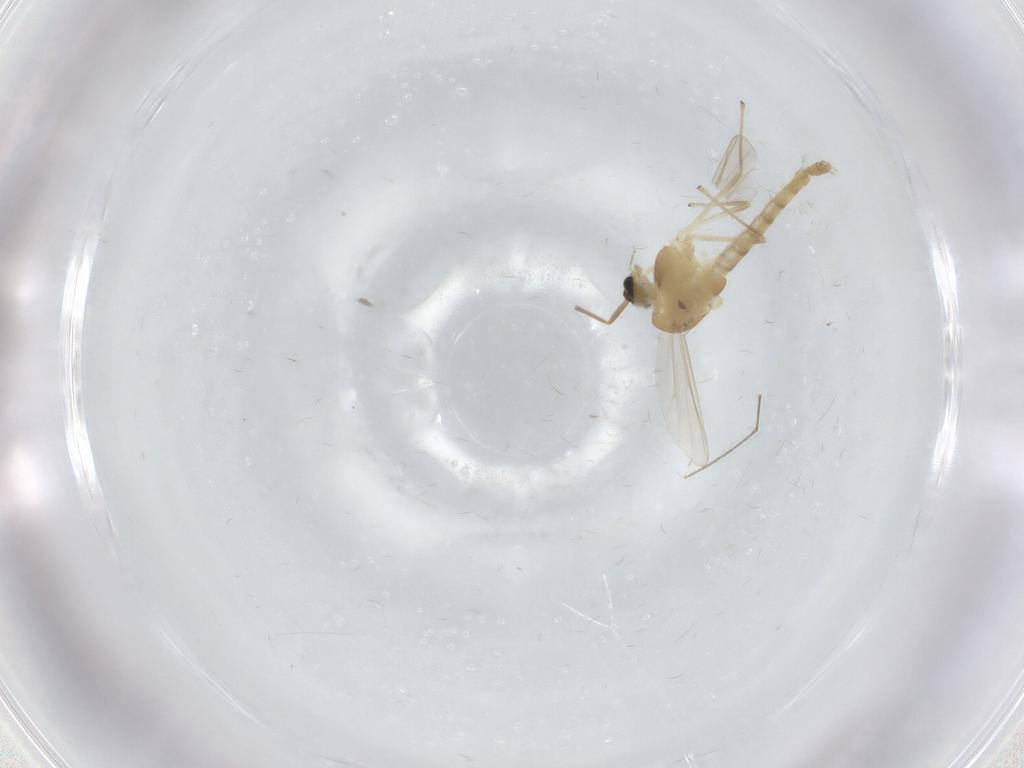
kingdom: Animalia
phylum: Arthropoda
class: Insecta
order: Diptera
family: Chironomidae
